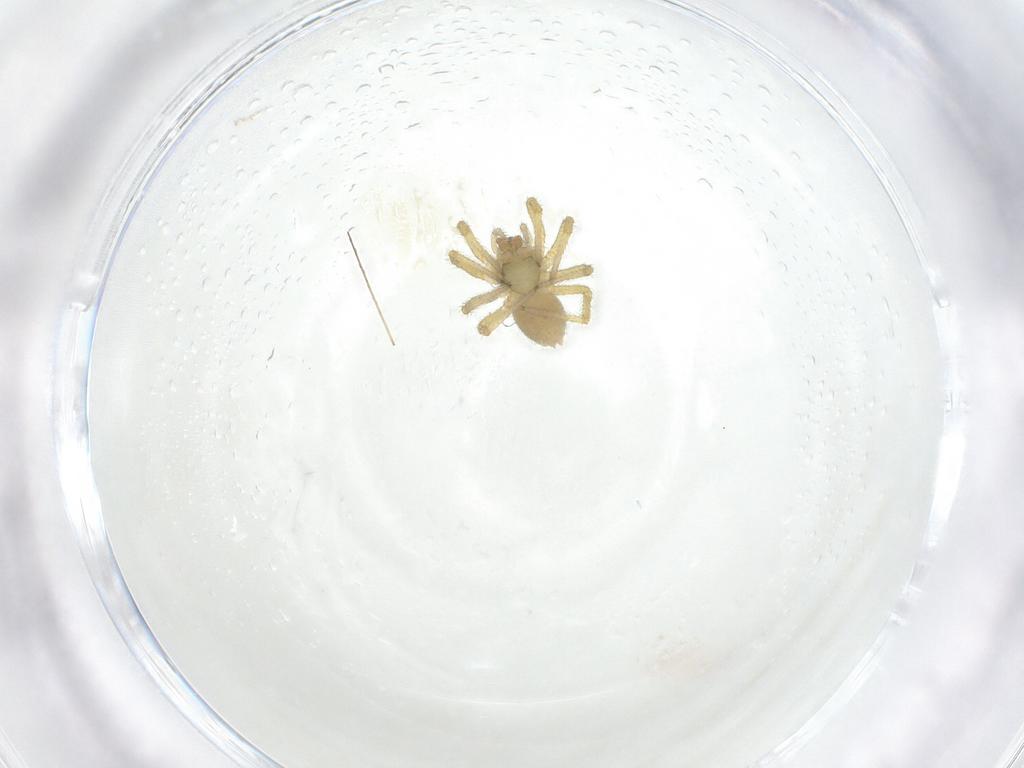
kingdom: Animalia
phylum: Arthropoda
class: Arachnida
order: Araneae
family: Linyphiidae
